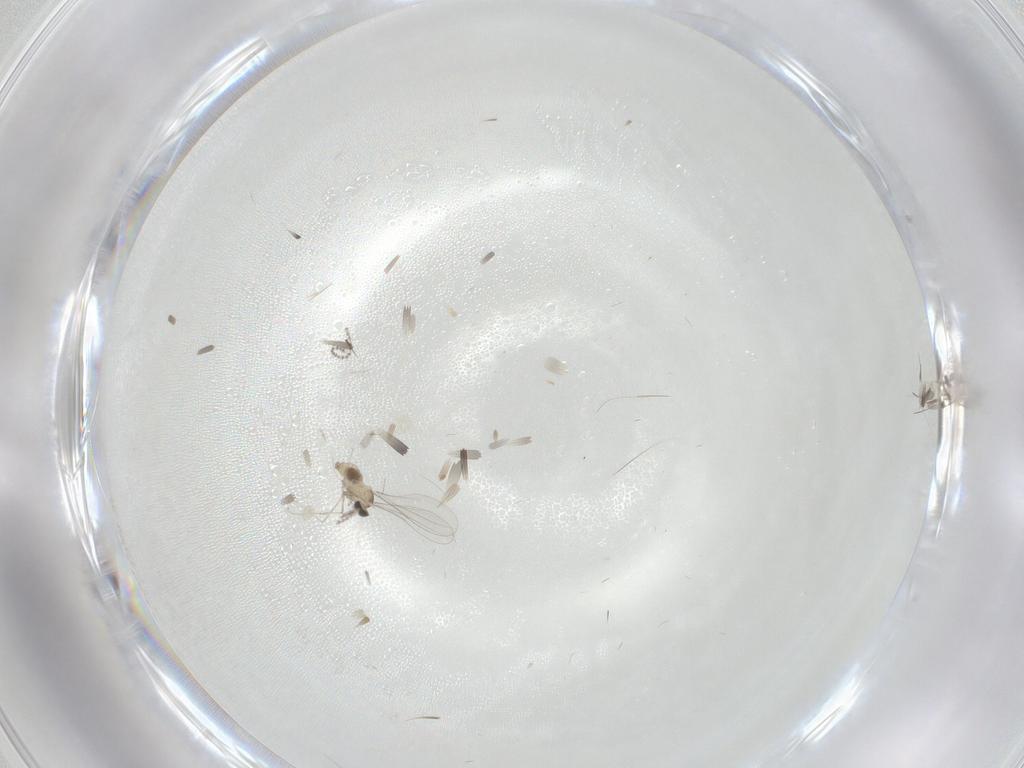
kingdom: Animalia
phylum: Arthropoda
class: Insecta
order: Diptera
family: Cecidomyiidae
